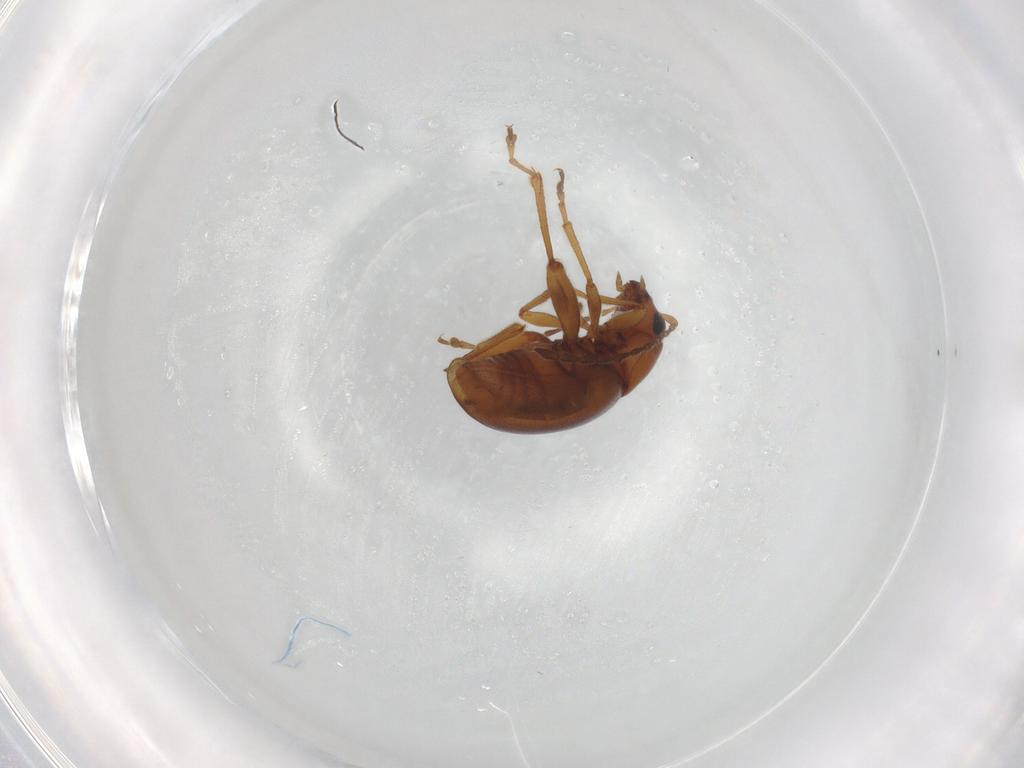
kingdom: Animalia
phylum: Arthropoda
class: Insecta
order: Coleoptera
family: Chrysomelidae
